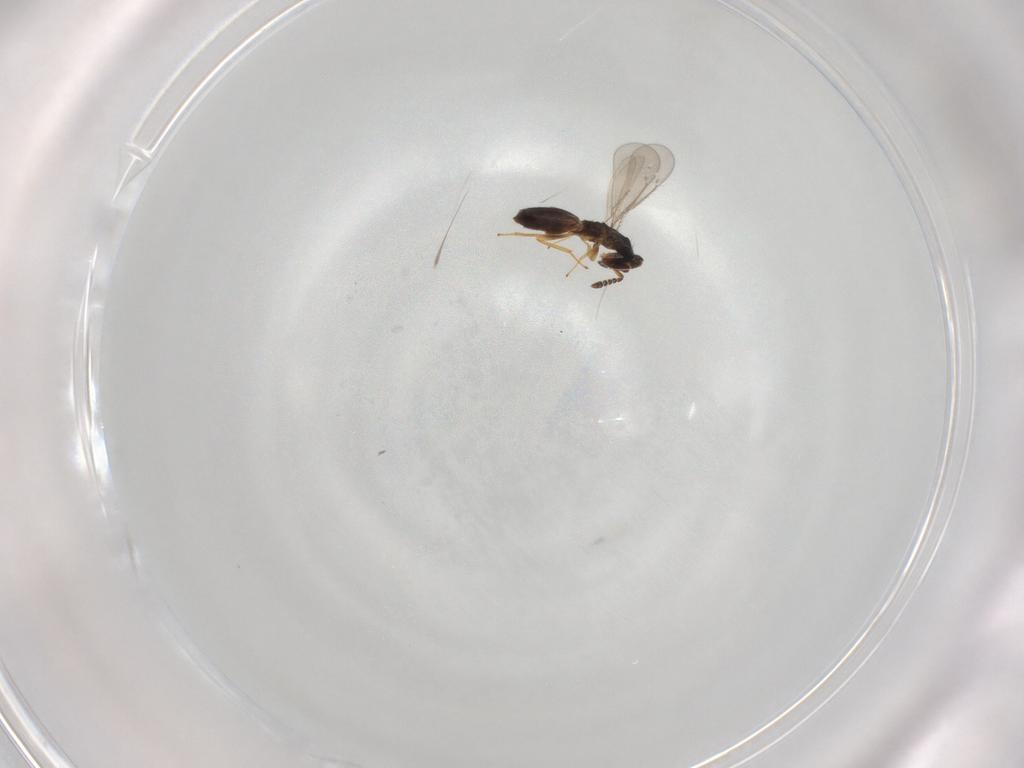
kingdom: Animalia
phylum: Arthropoda
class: Insecta
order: Hymenoptera
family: Eulophidae
